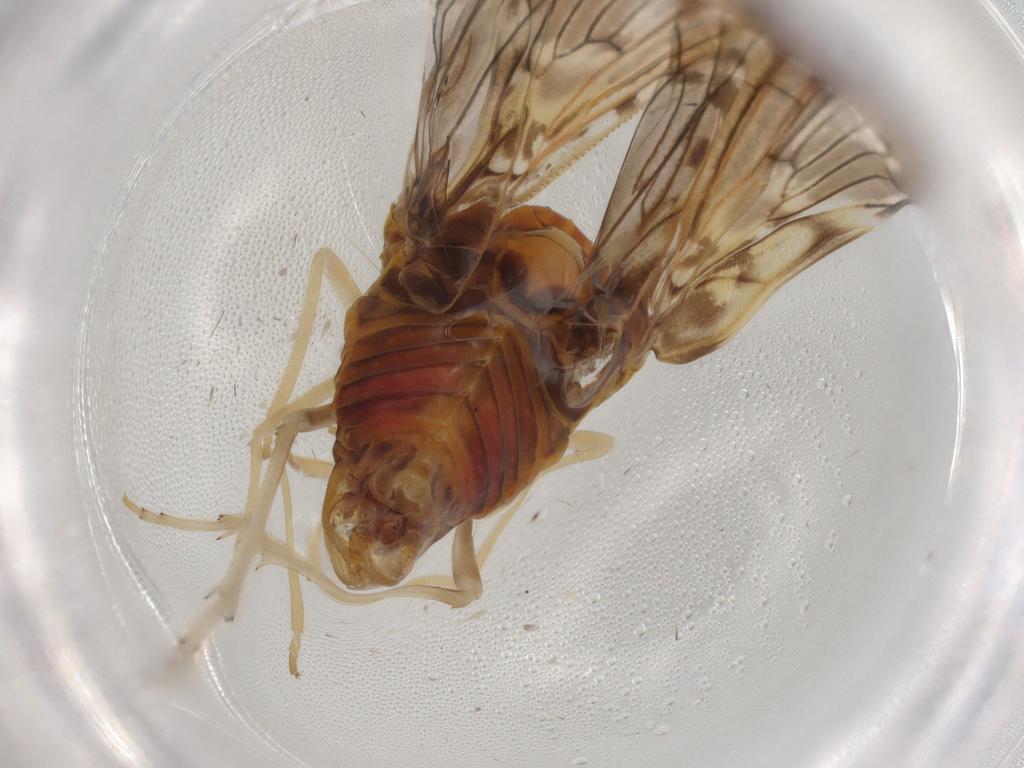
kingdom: Animalia
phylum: Arthropoda
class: Insecta
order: Hemiptera
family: Derbidae
